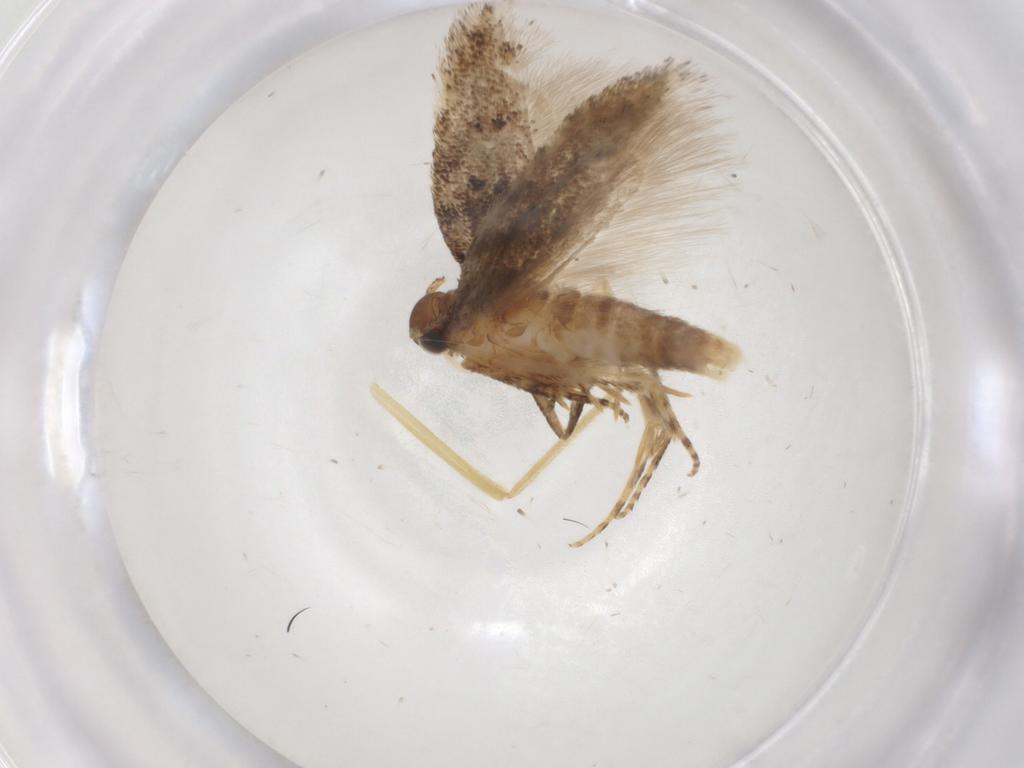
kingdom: Animalia
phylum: Arthropoda
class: Insecta
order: Lepidoptera
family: Gelechiidae
